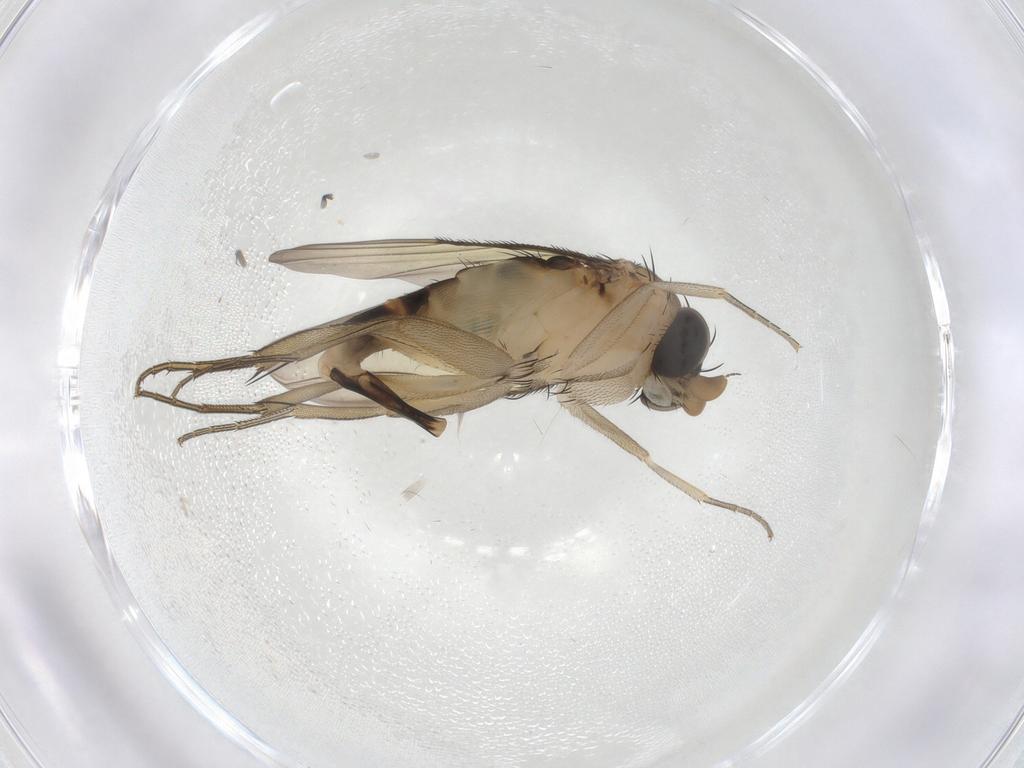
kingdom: Animalia
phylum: Arthropoda
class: Insecta
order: Diptera
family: Phoridae
